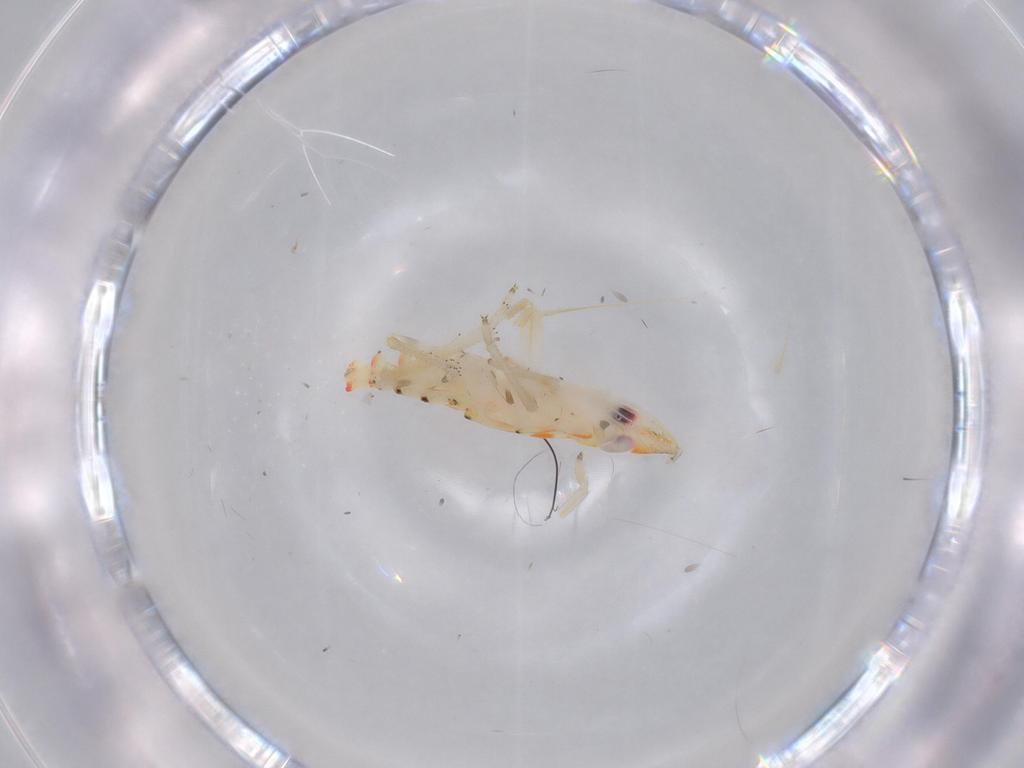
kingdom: Animalia
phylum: Arthropoda
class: Insecta
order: Hemiptera
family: Tropiduchidae
